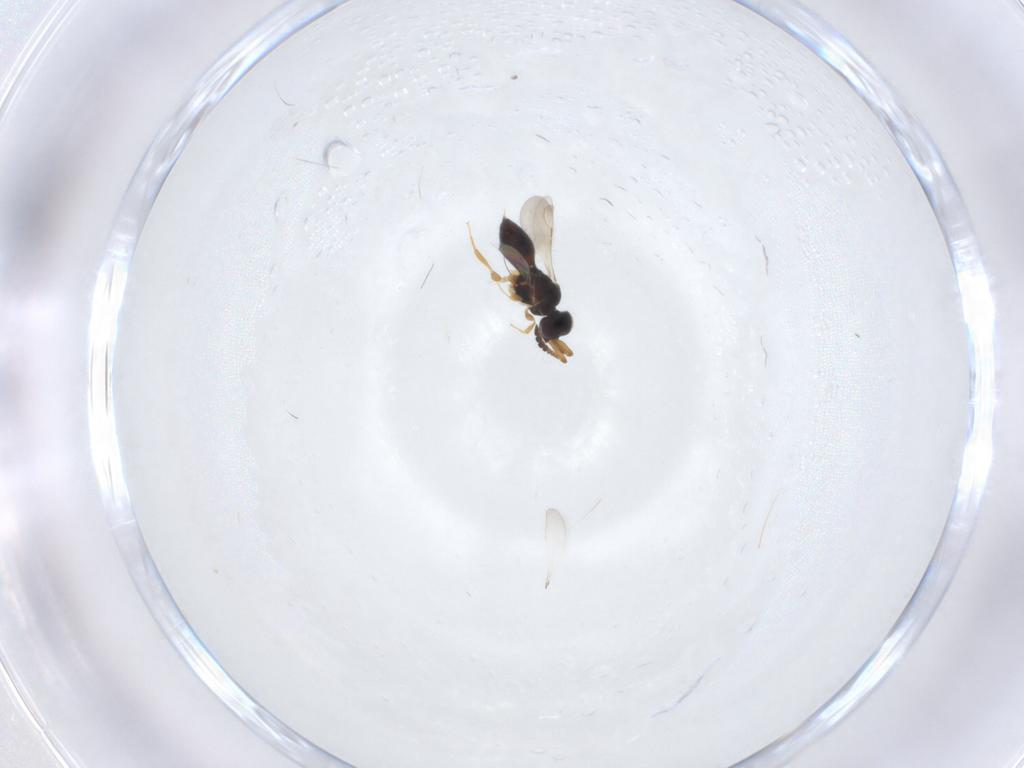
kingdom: Animalia
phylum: Arthropoda
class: Insecta
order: Hymenoptera
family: Ceraphronidae
